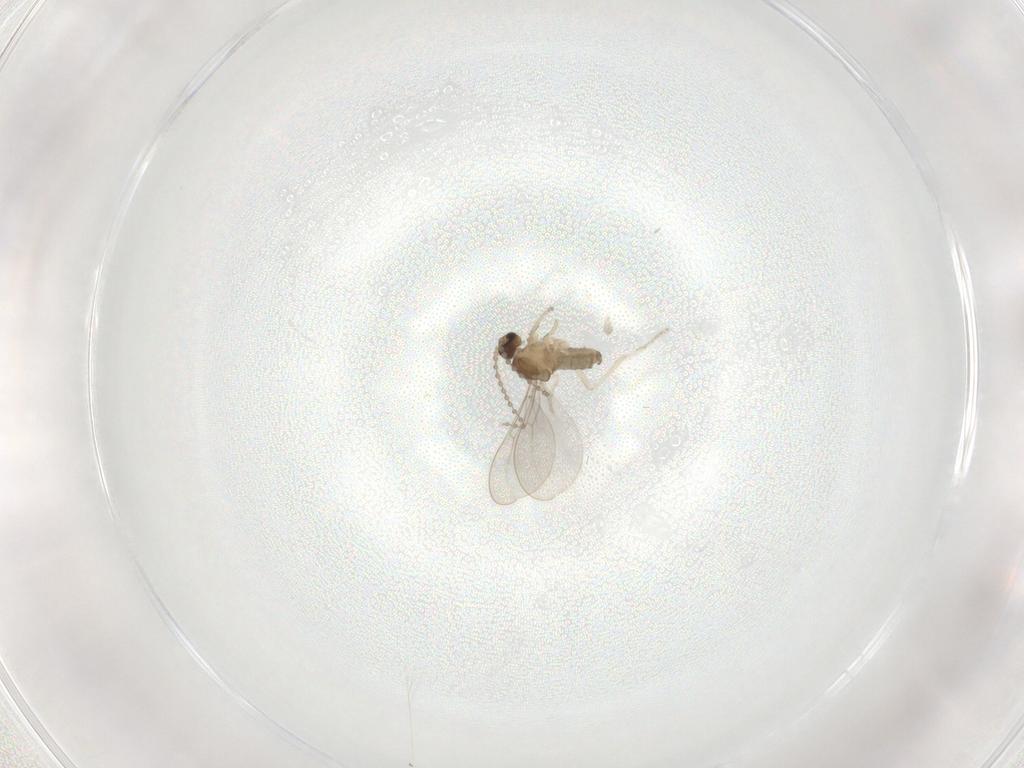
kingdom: Animalia
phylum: Arthropoda
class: Insecta
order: Diptera
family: Cecidomyiidae
